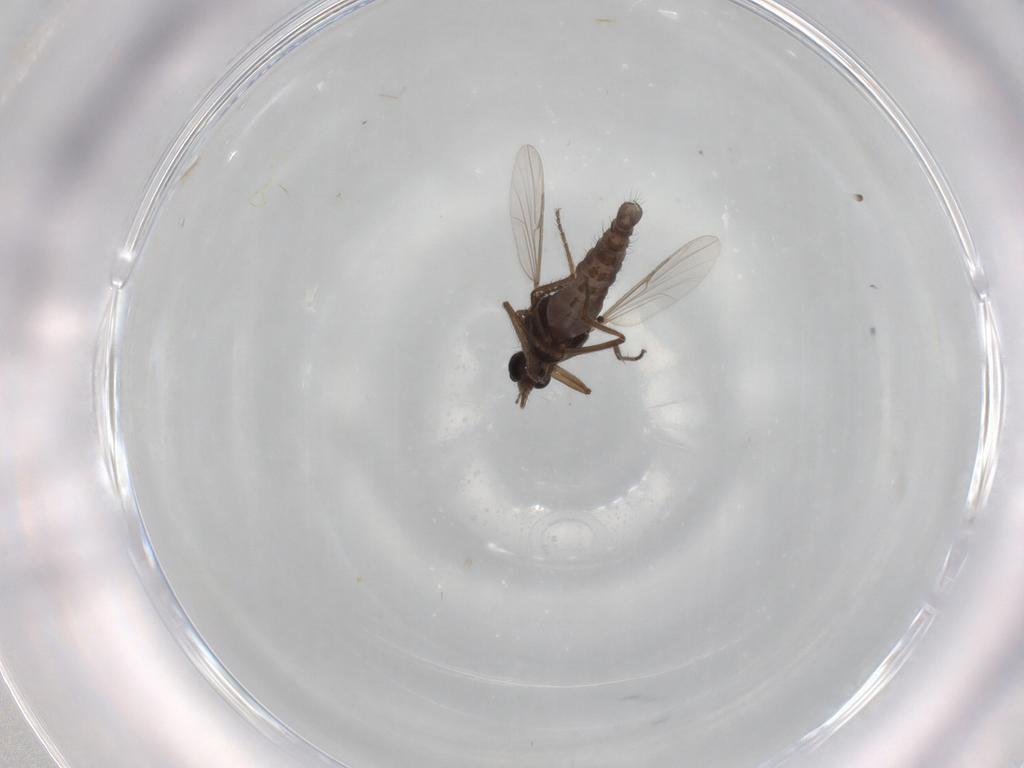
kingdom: Animalia
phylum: Arthropoda
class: Insecta
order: Diptera
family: Ceratopogonidae
